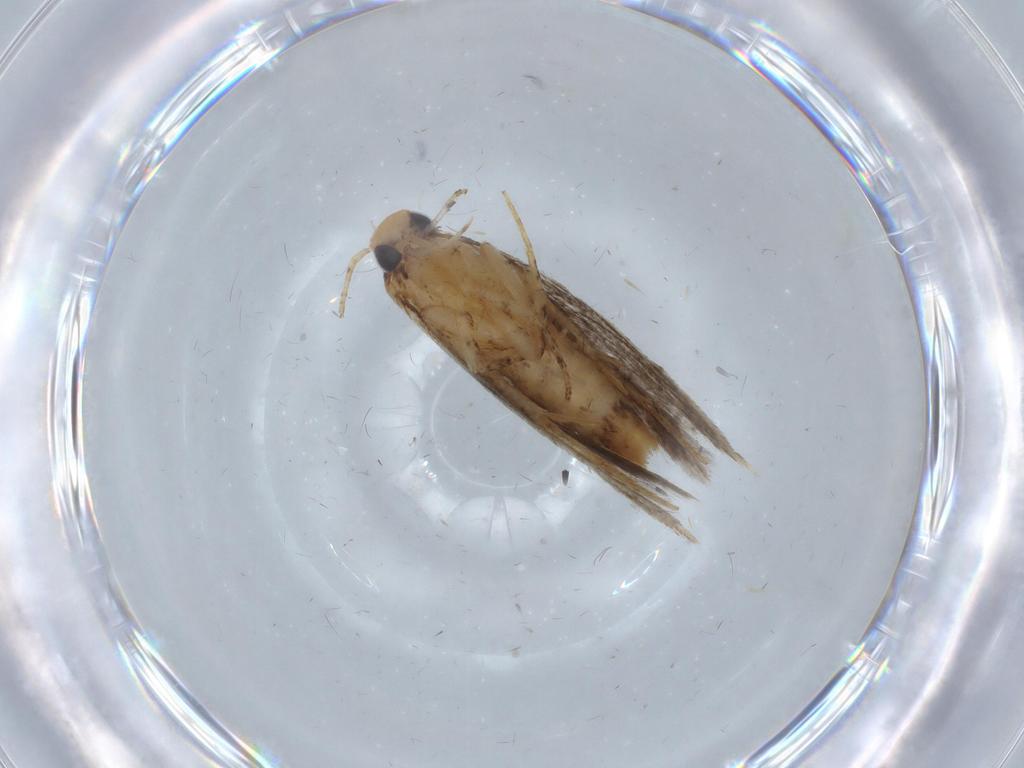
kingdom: Animalia
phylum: Arthropoda
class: Insecta
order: Lepidoptera
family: Gelechiidae
